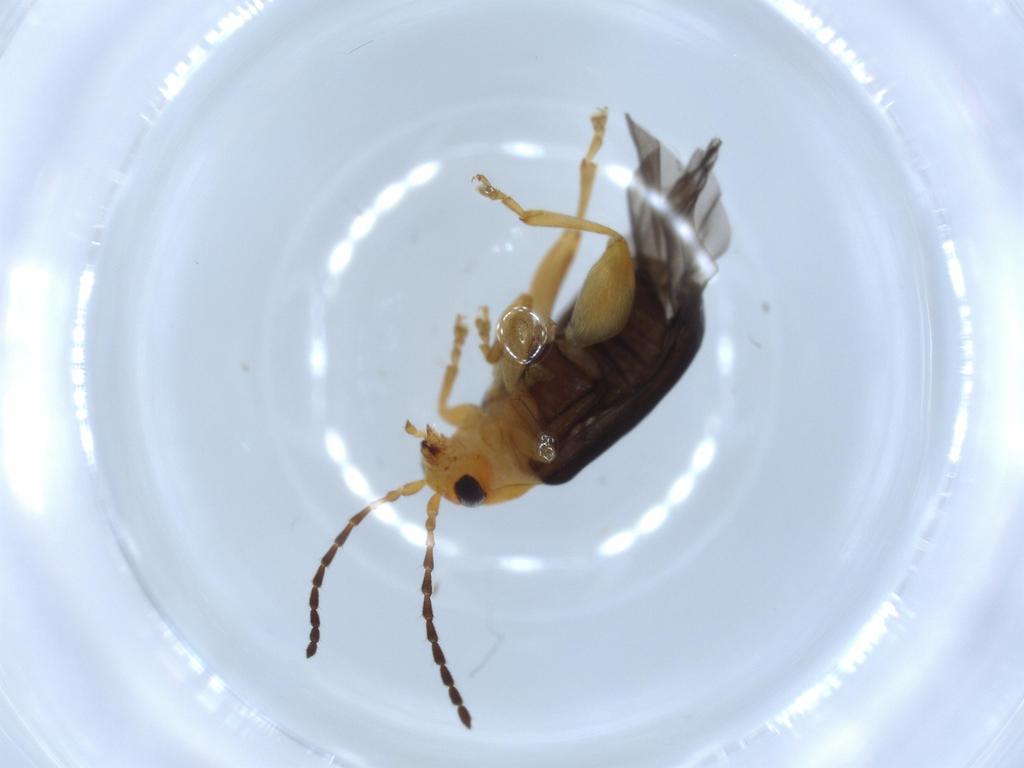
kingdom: Animalia
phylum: Arthropoda
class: Insecta
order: Coleoptera
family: Chrysomelidae
